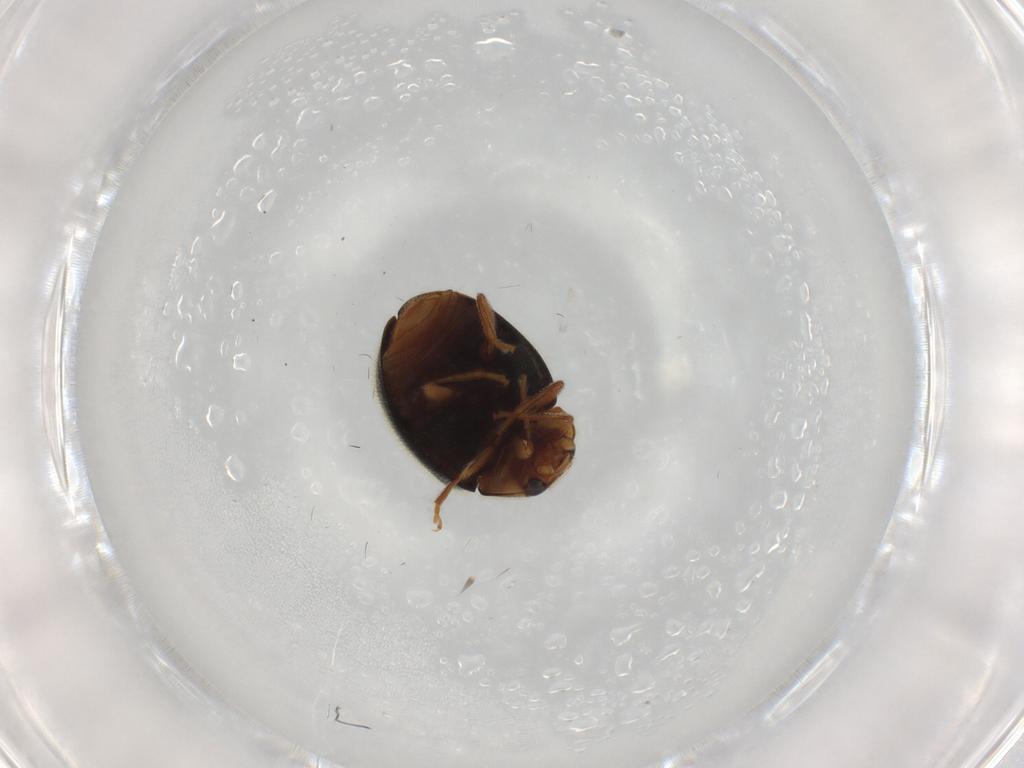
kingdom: Animalia
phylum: Arthropoda
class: Insecta
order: Coleoptera
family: Coccinellidae
